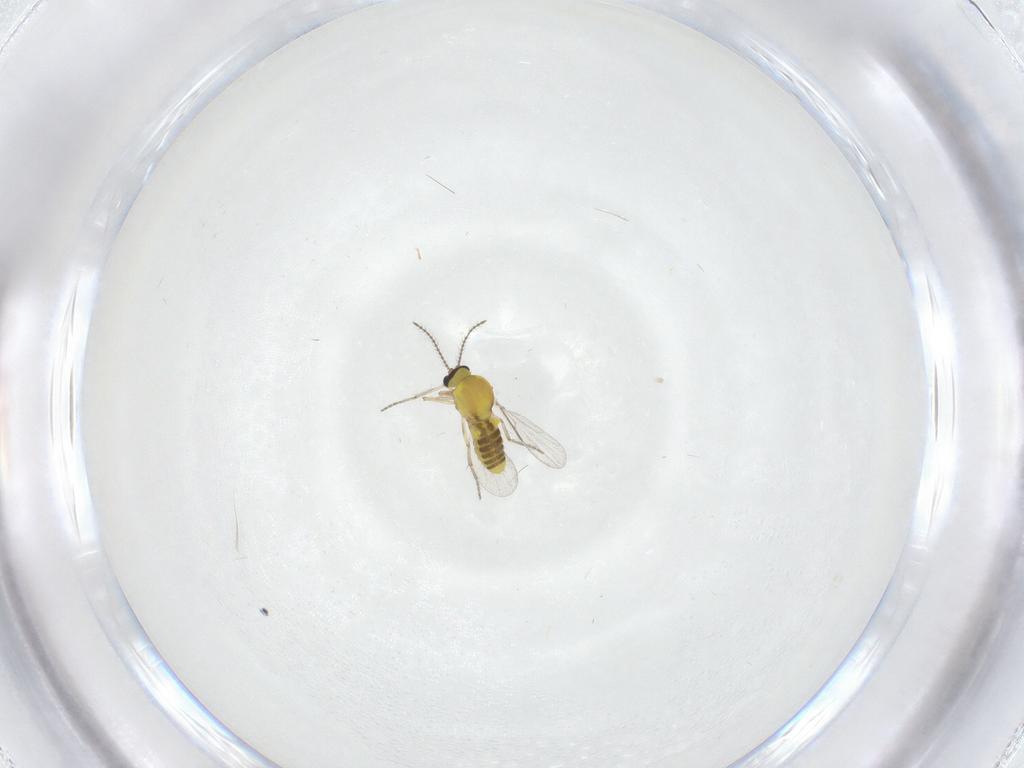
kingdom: Animalia
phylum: Arthropoda
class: Insecta
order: Diptera
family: Ceratopogonidae
